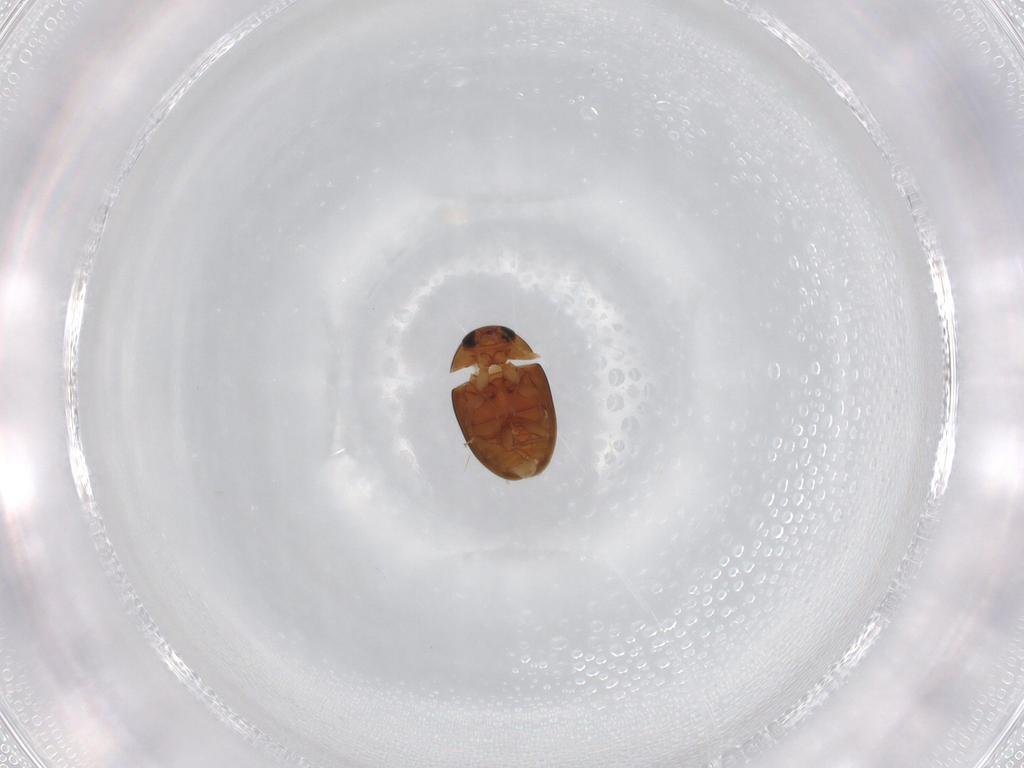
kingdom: Animalia
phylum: Arthropoda
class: Insecta
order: Coleoptera
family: Phalacridae
